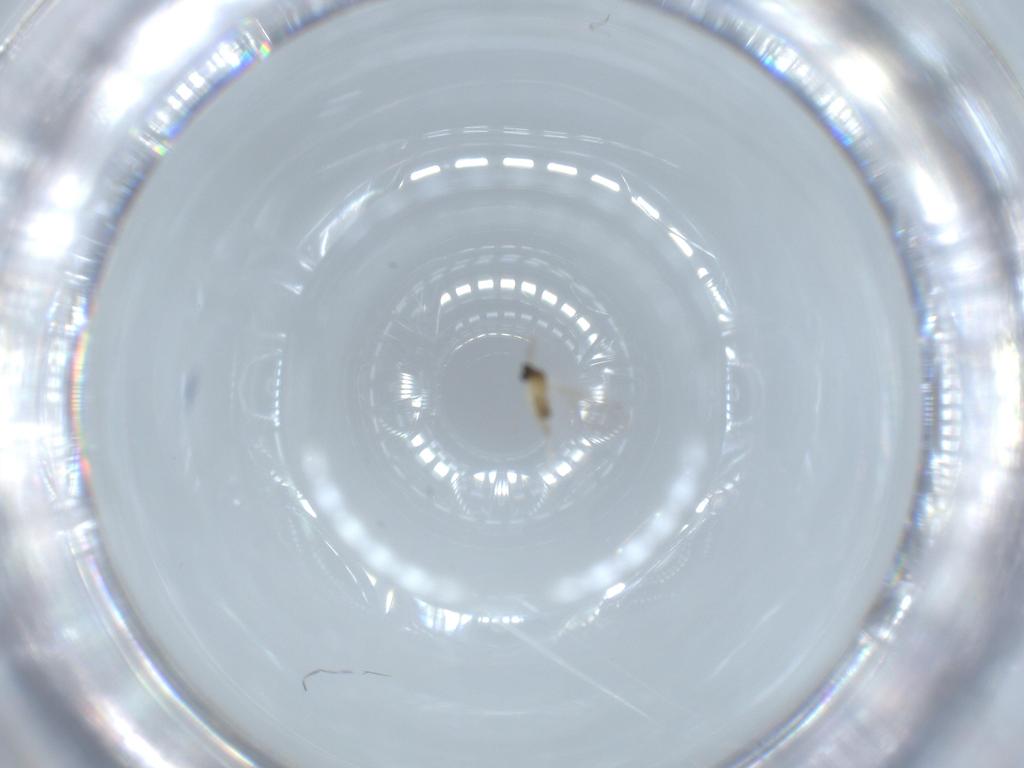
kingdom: Animalia
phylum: Arthropoda
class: Insecta
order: Diptera
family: Cecidomyiidae
